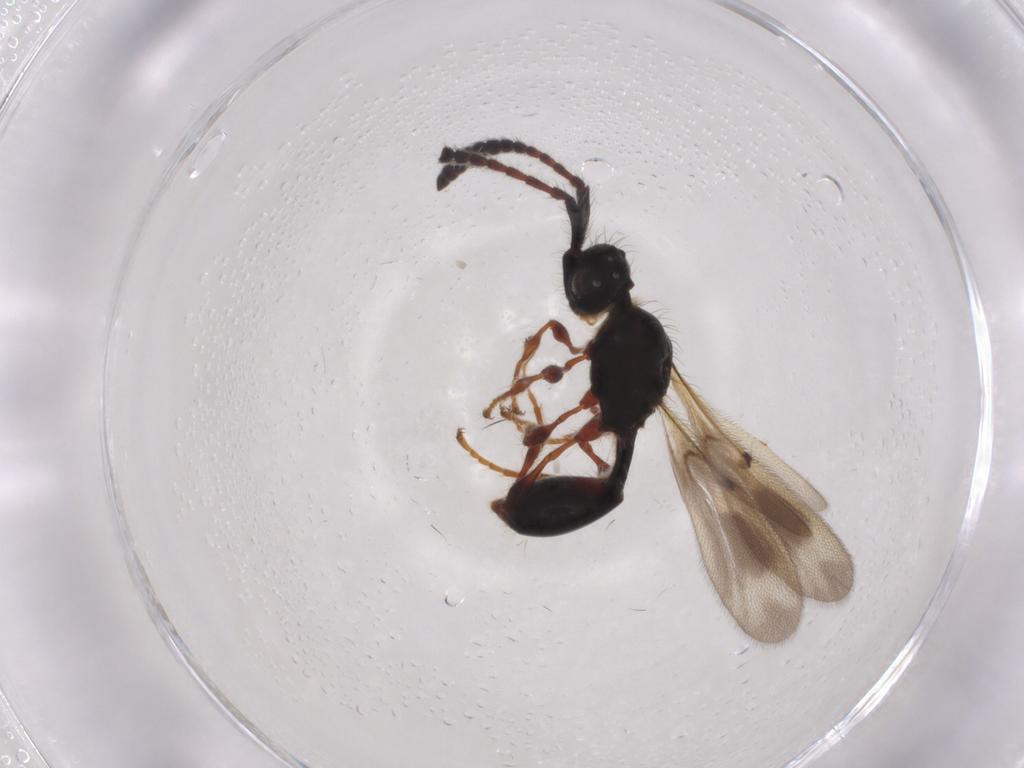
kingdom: Animalia
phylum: Arthropoda
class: Insecta
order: Hymenoptera
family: Diapriidae
